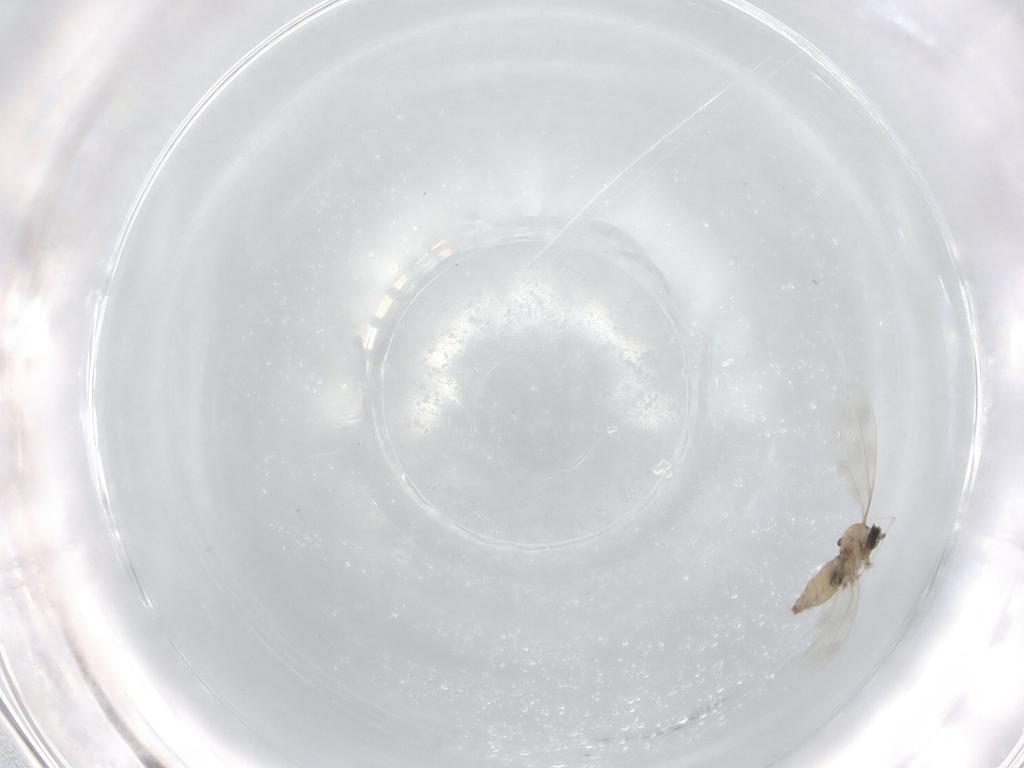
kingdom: Animalia
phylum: Arthropoda
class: Insecta
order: Diptera
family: Cecidomyiidae
